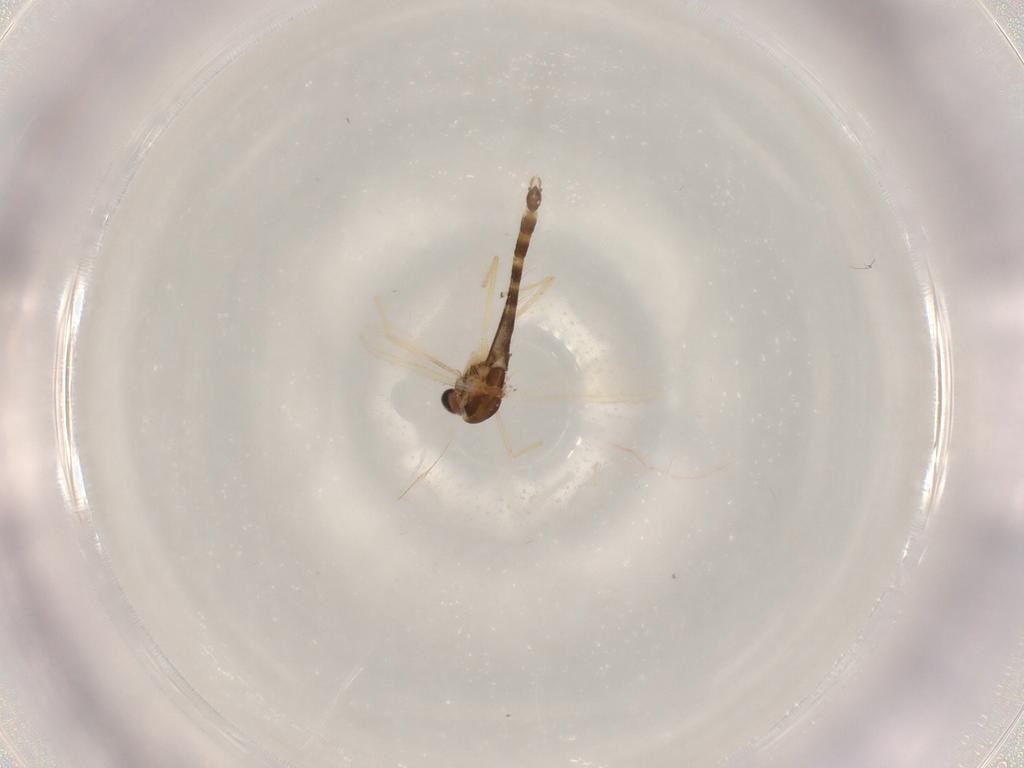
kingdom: Animalia
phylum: Arthropoda
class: Insecta
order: Diptera
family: Chironomidae
